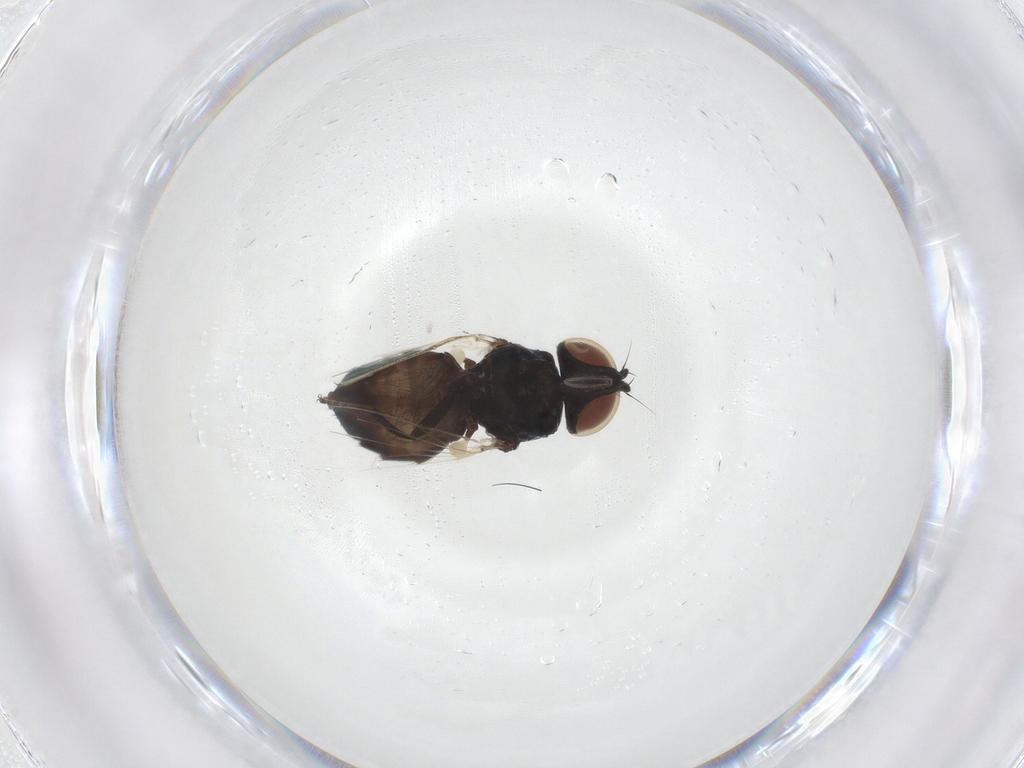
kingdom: Animalia
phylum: Arthropoda
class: Insecta
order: Diptera
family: Milichiidae
